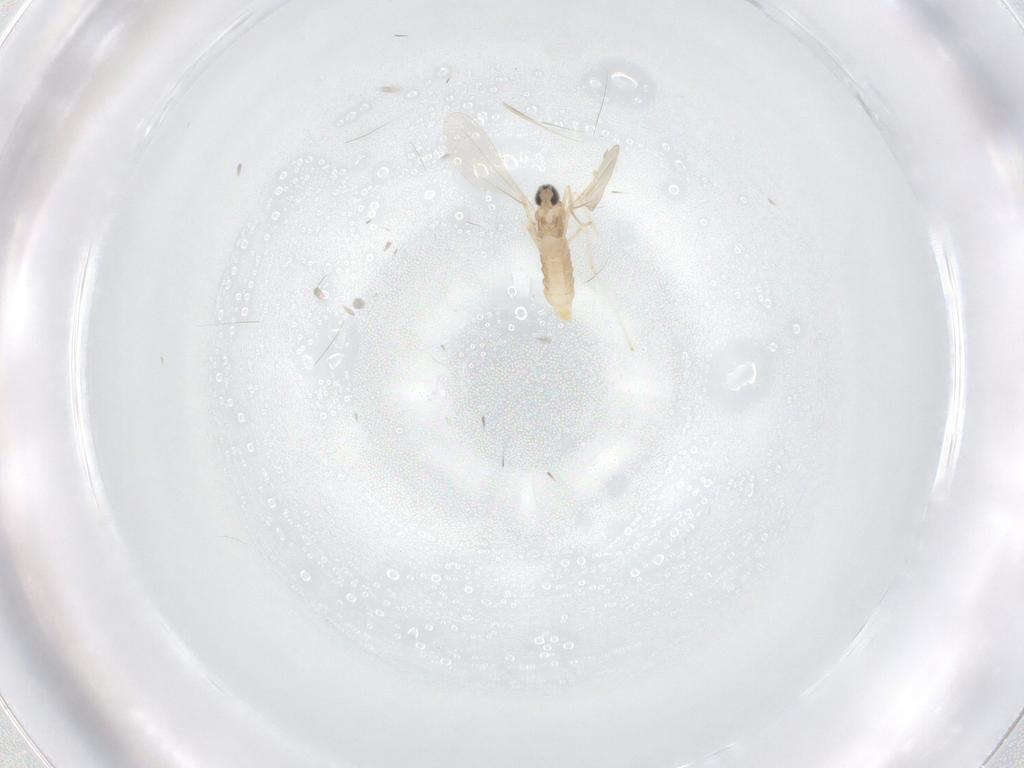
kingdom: Animalia
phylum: Arthropoda
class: Insecta
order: Diptera
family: Cecidomyiidae
